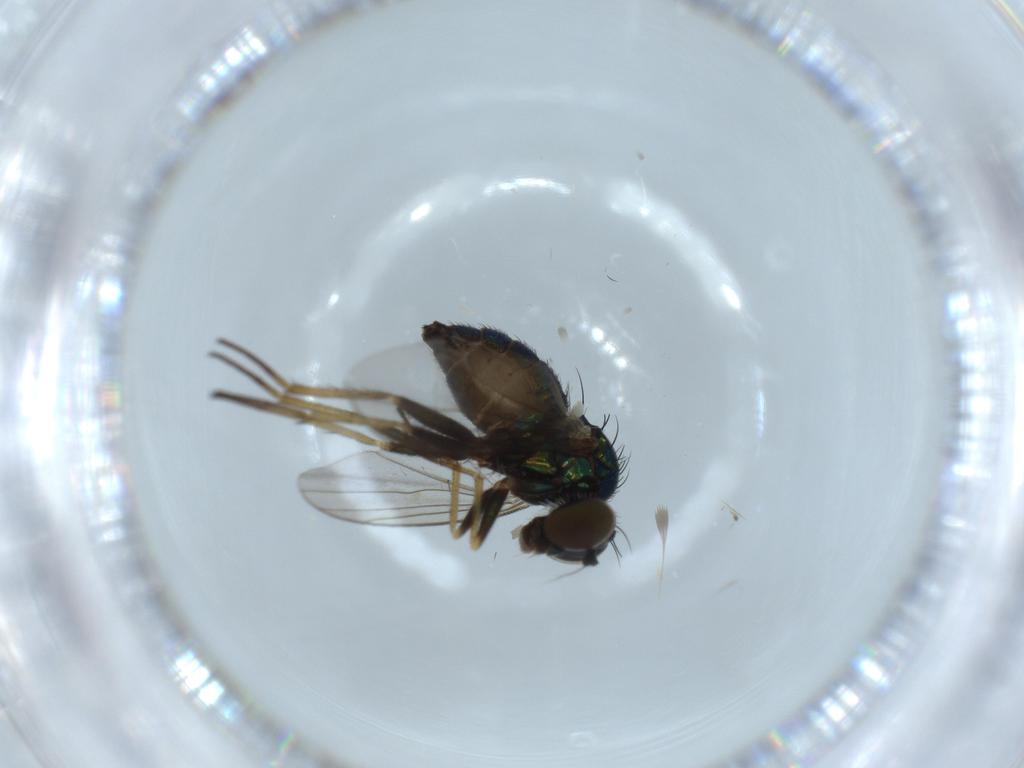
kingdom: Animalia
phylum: Arthropoda
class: Insecta
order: Diptera
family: Dolichopodidae
